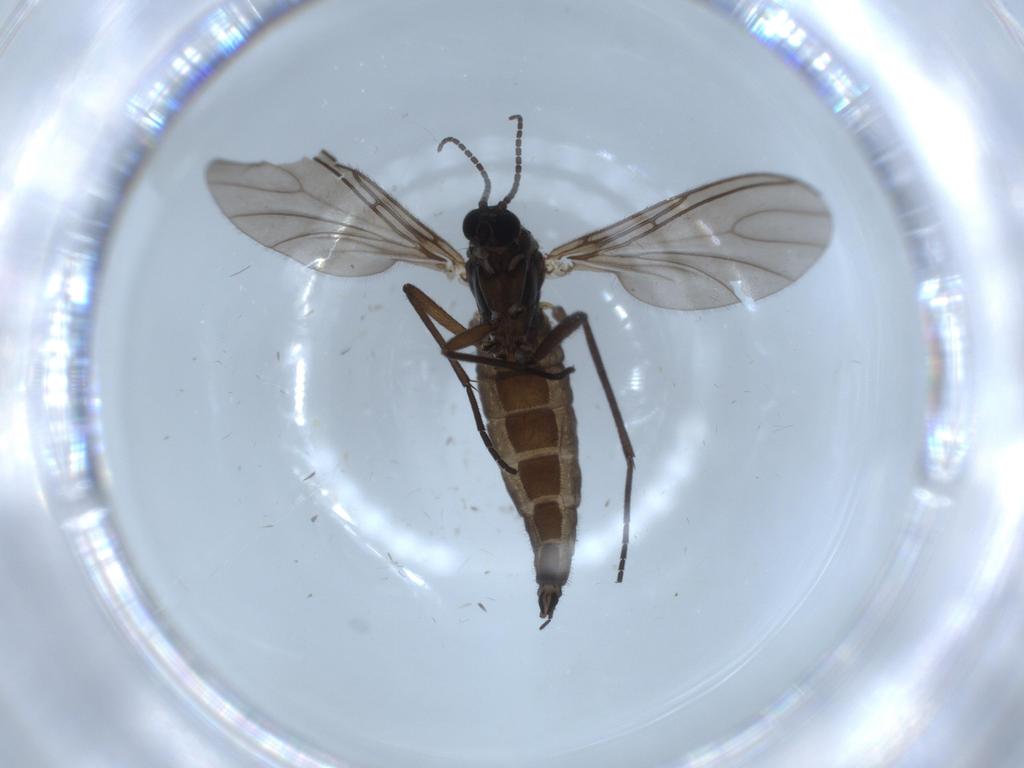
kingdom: Animalia
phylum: Arthropoda
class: Insecta
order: Diptera
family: Sciaridae
